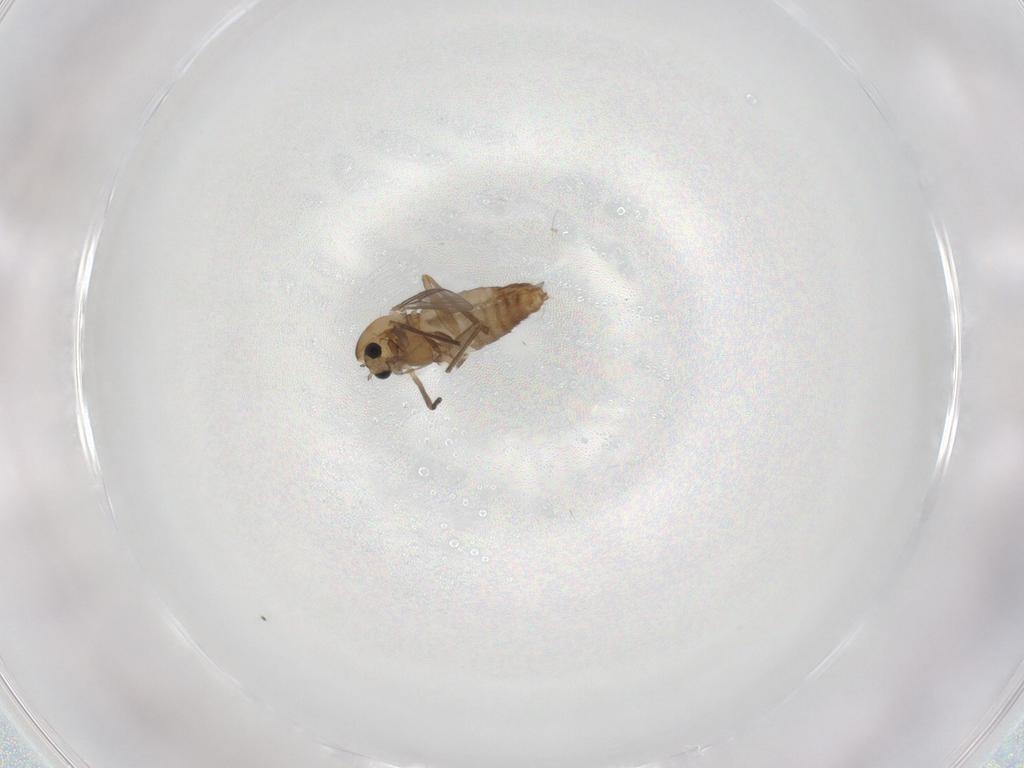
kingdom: Animalia
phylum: Arthropoda
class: Insecta
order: Diptera
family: Chironomidae
